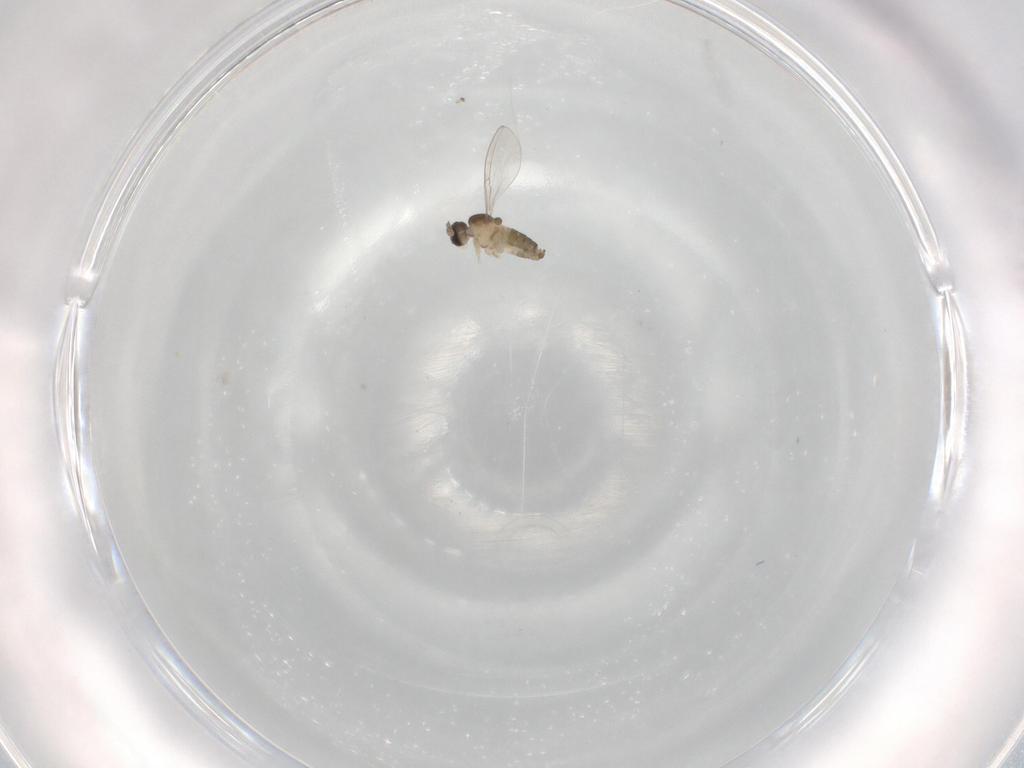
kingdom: Animalia
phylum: Arthropoda
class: Insecta
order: Diptera
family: Cecidomyiidae
